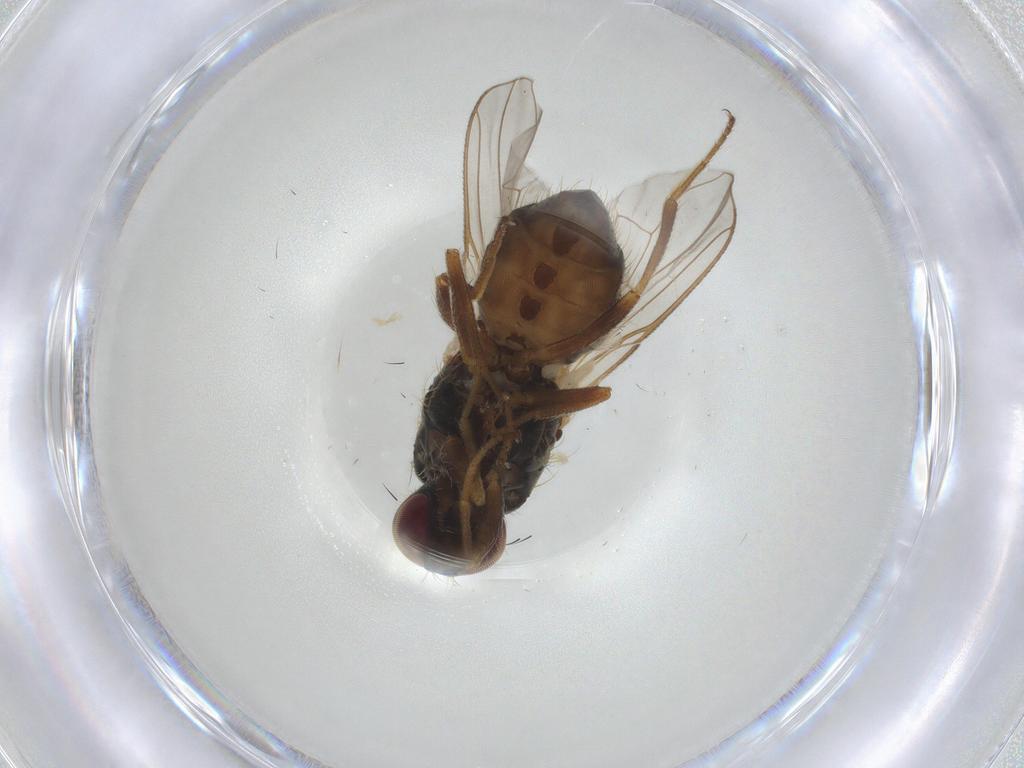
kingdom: Animalia
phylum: Arthropoda
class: Insecta
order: Diptera
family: Muscidae
